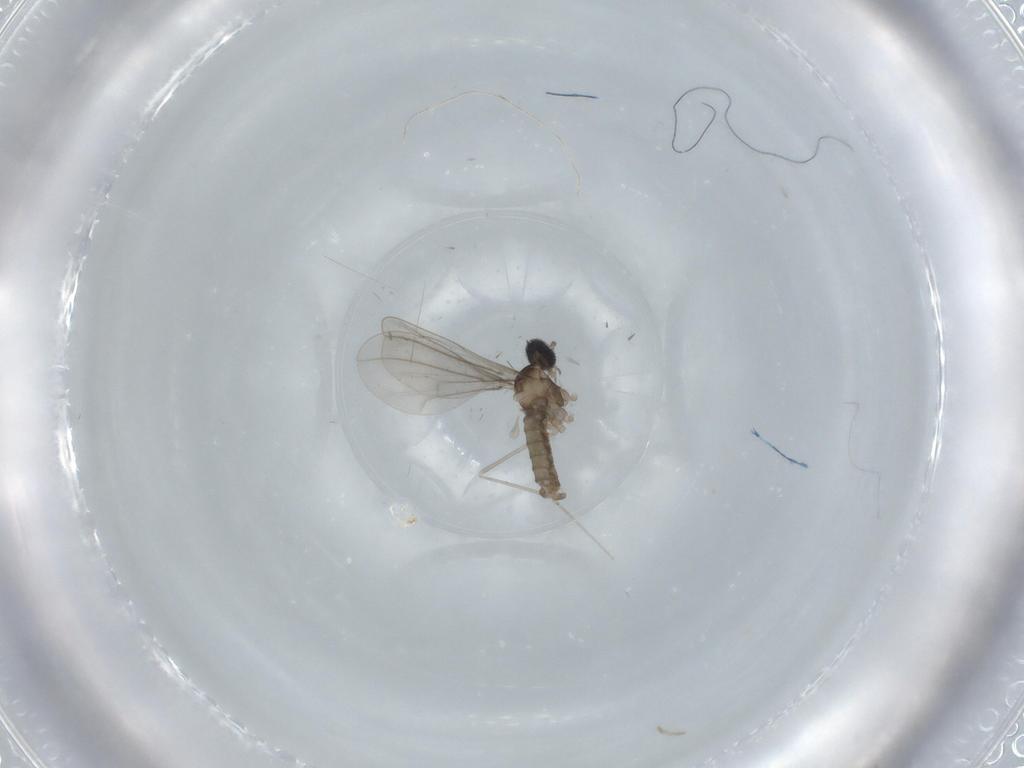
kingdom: Animalia
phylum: Arthropoda
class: Insecta
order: Diptera
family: Cecidomyiidae
